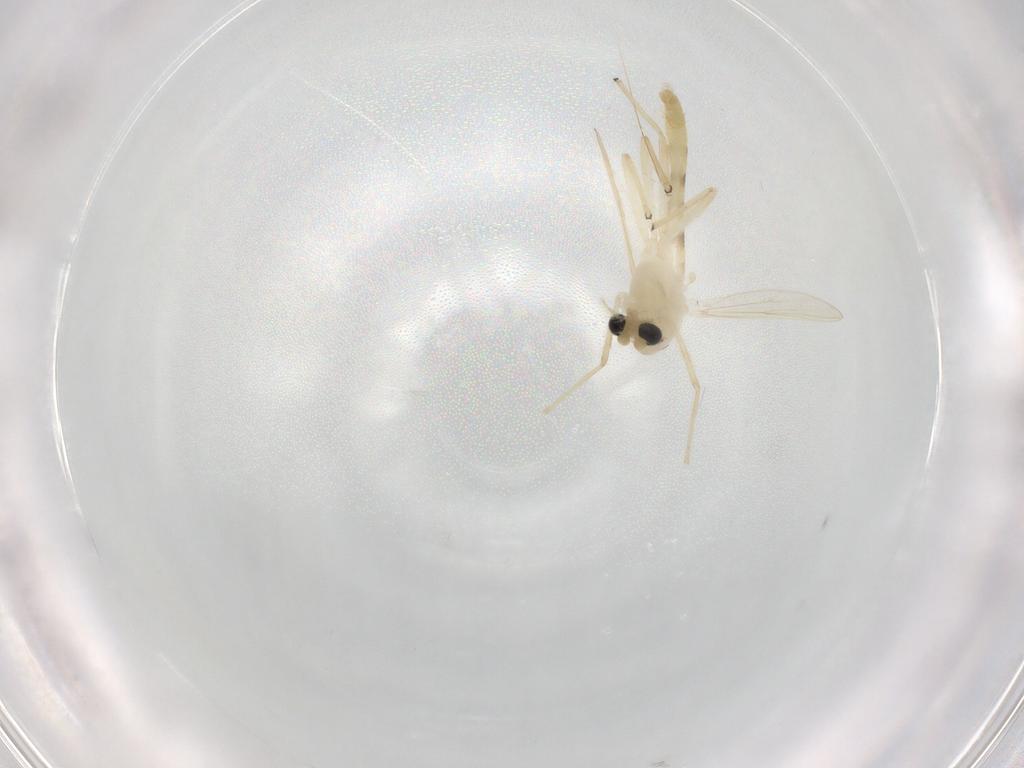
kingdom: Animalia
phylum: Arthropoda
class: Insecta
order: Diptera
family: Chironomidae
